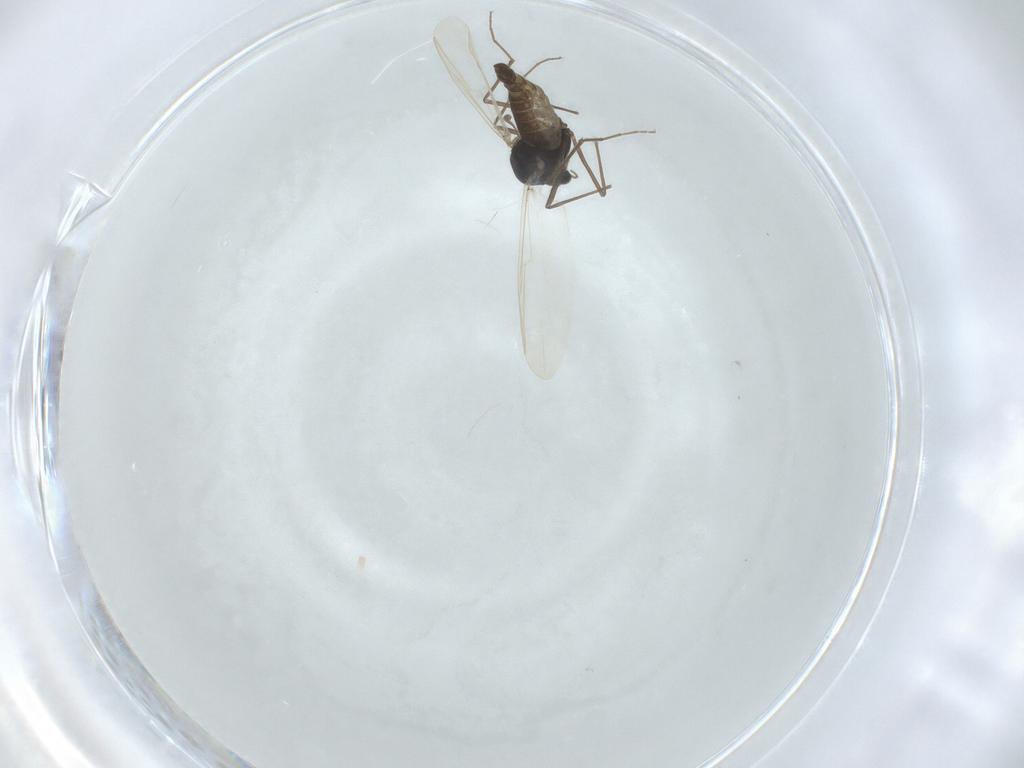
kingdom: Animalia
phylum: Arthropoda
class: Insecta
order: Diptera
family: Chironomidae
